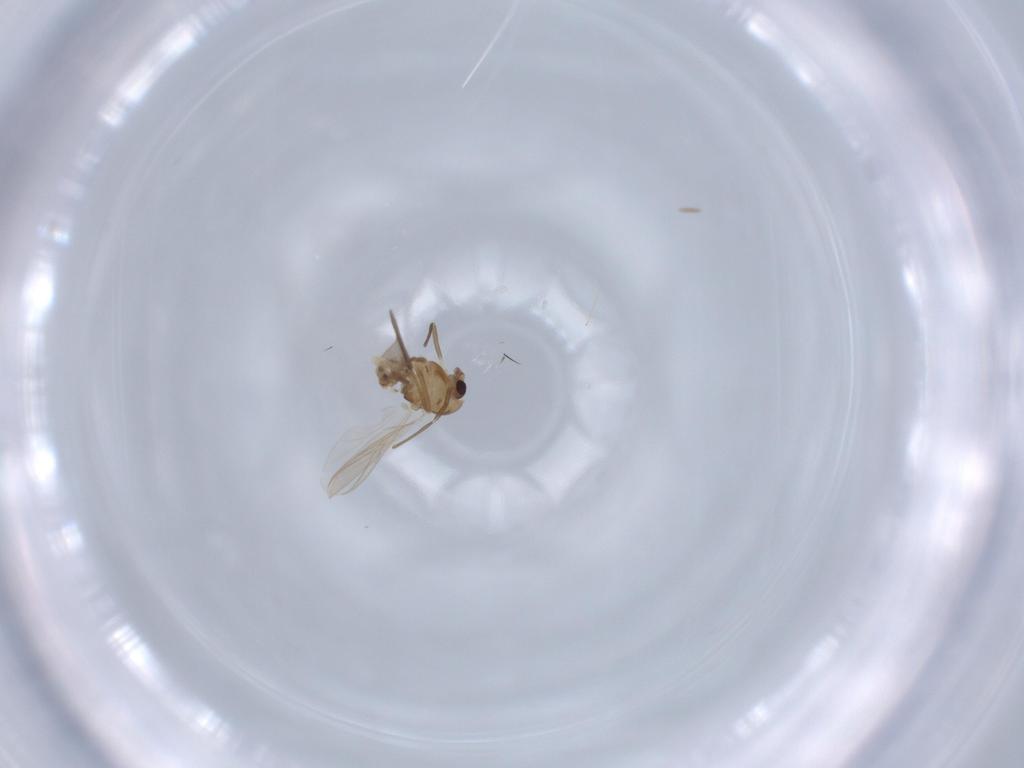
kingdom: Animalia
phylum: Arthropoda
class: Insecta
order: Diptera
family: Chironomidae
